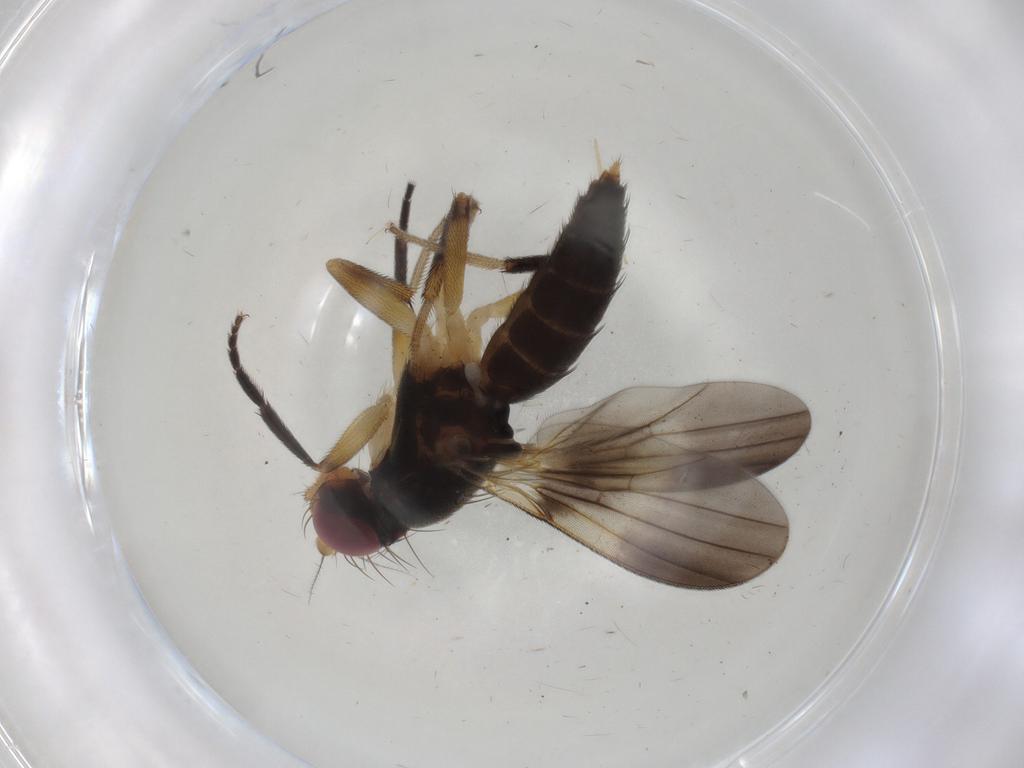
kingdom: Animalia
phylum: Arthropoda
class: Insecta
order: Diptera
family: Clusiidae
